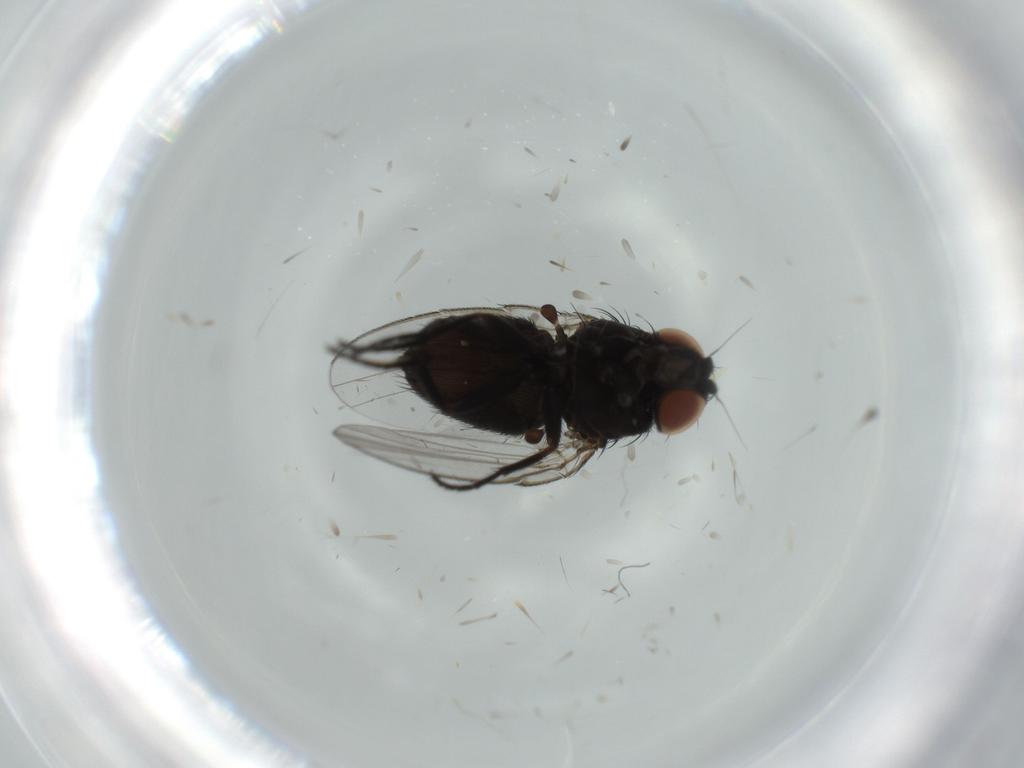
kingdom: Animalia
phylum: Arthropoda
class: Insecta
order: Diptera
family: Milichiidae
